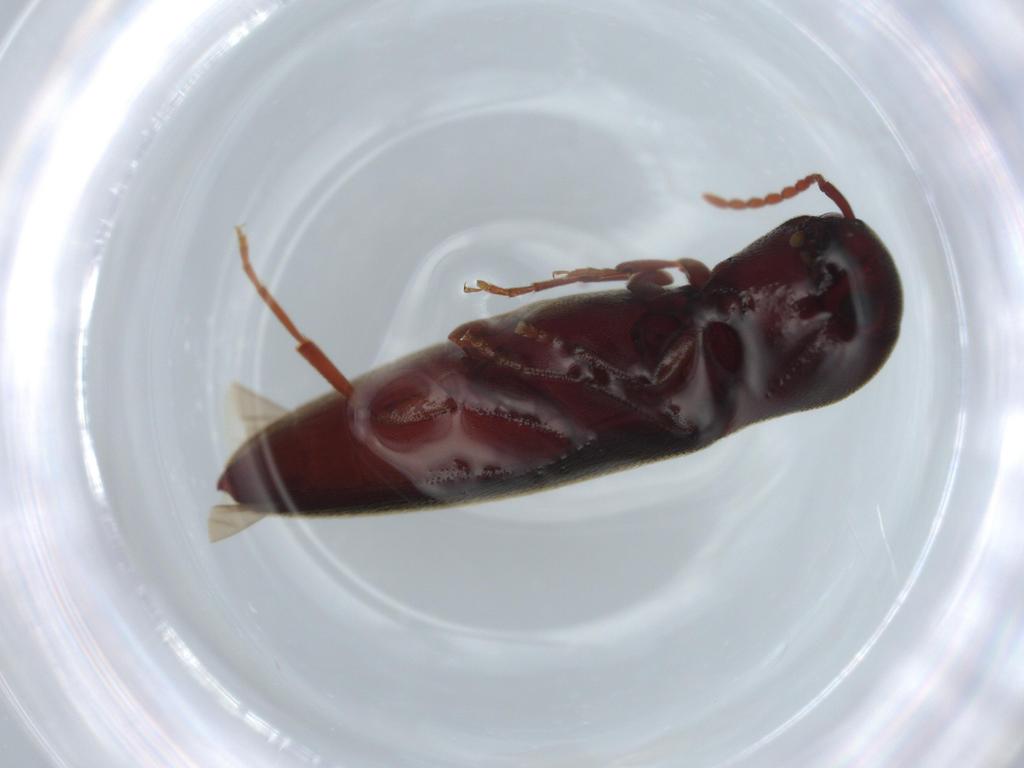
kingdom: Animalia
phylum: Arthropoda
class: Insecta
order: Coleoptera
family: Eucnemidae
